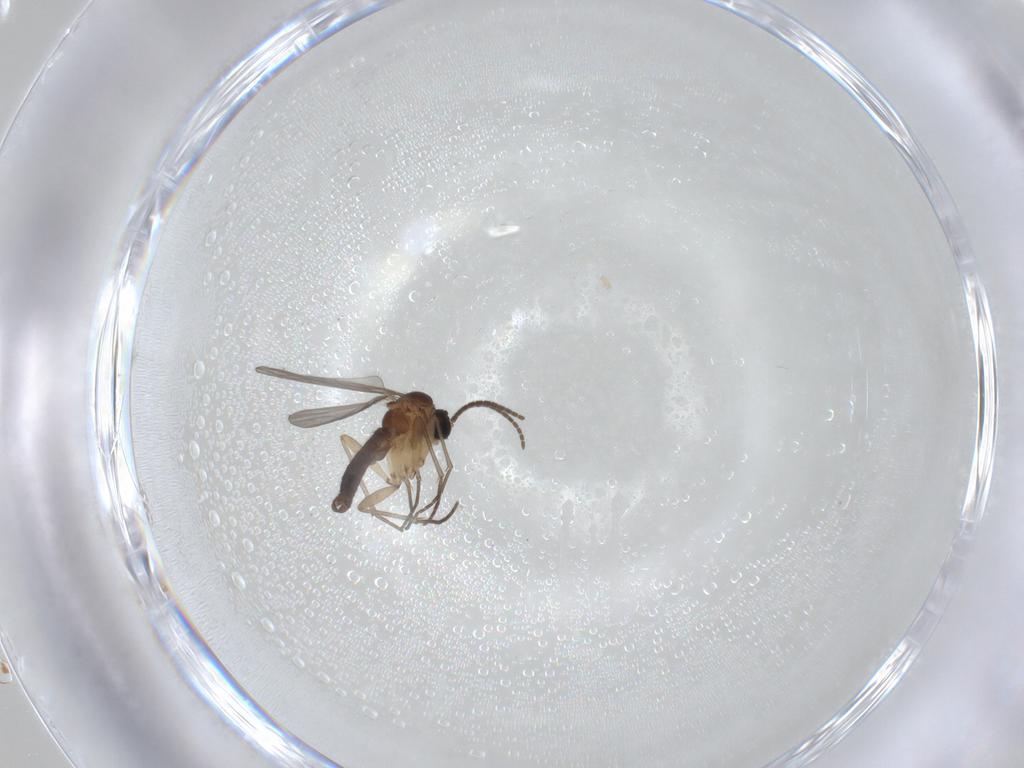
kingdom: Animalia
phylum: Arthropoda
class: Insecta
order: Diptera
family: Sciaridae
